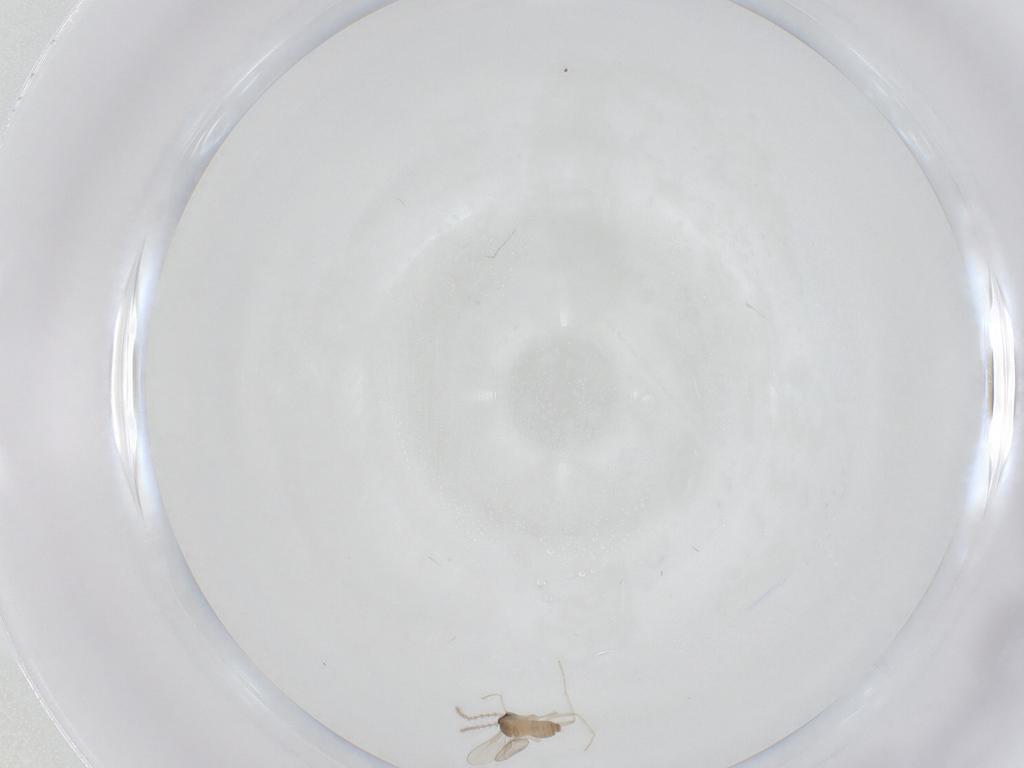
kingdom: Animalia
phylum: Arthropoda
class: Insecta
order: Diptera
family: Cecidomyiidae
